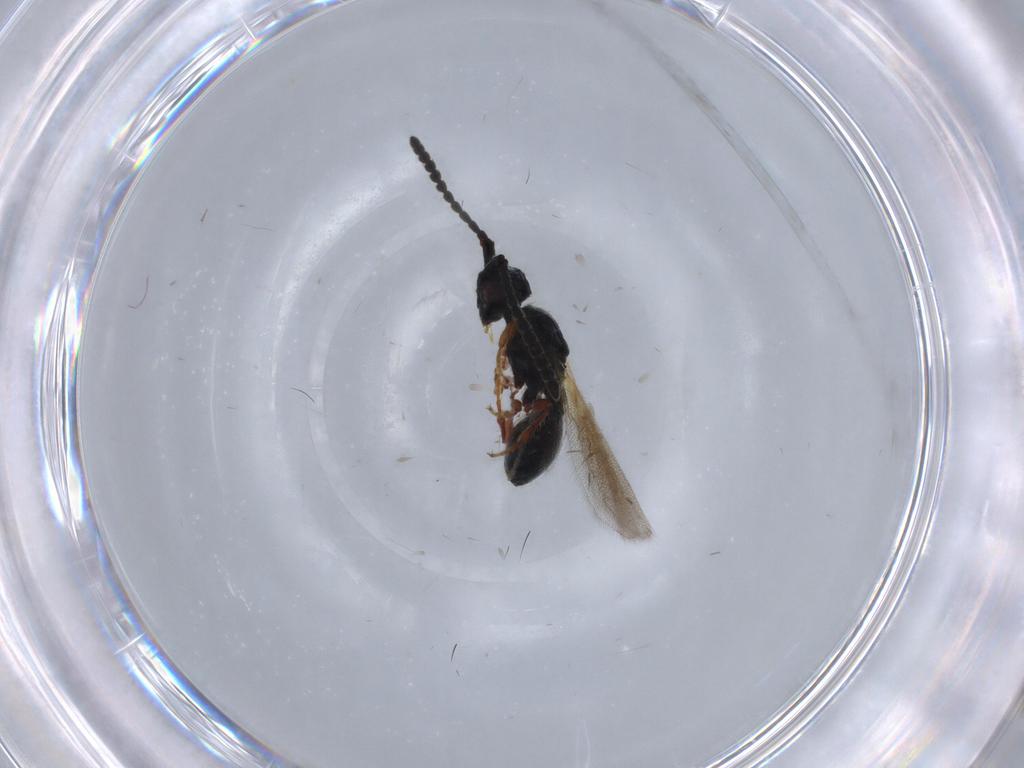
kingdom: Animalia
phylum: Arthropoda
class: Insecta
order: Hymenoptera
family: Diapriidae
